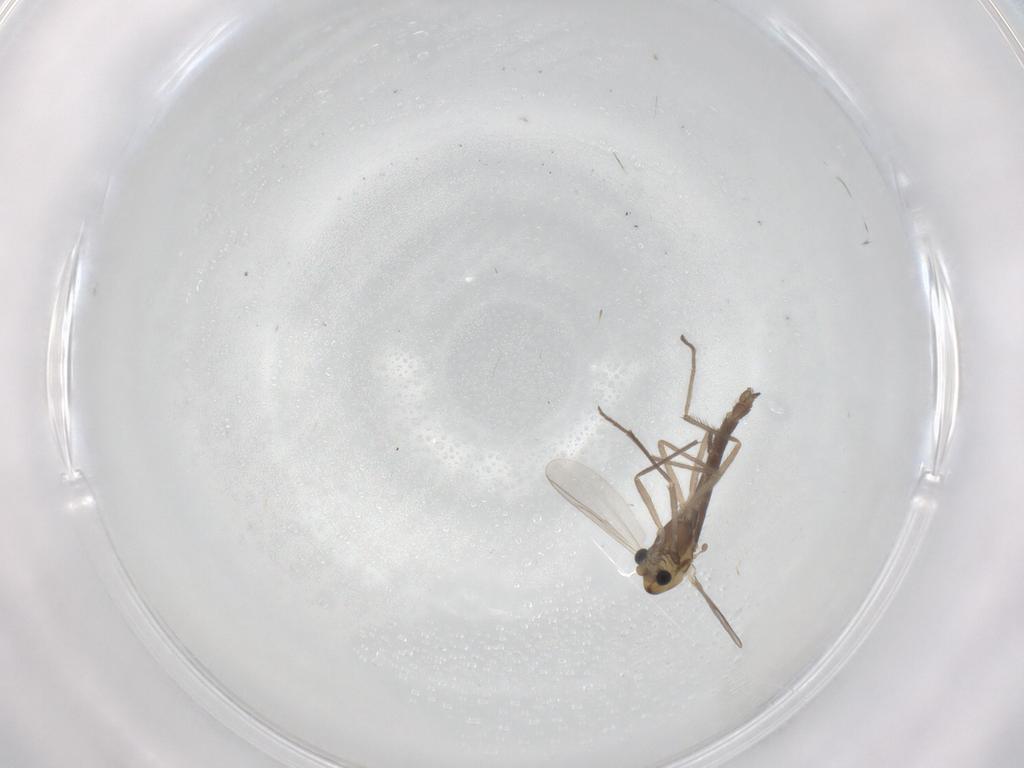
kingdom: Animalia
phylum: Arthropoda
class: Insecta
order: Diptera
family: Chironomidae
